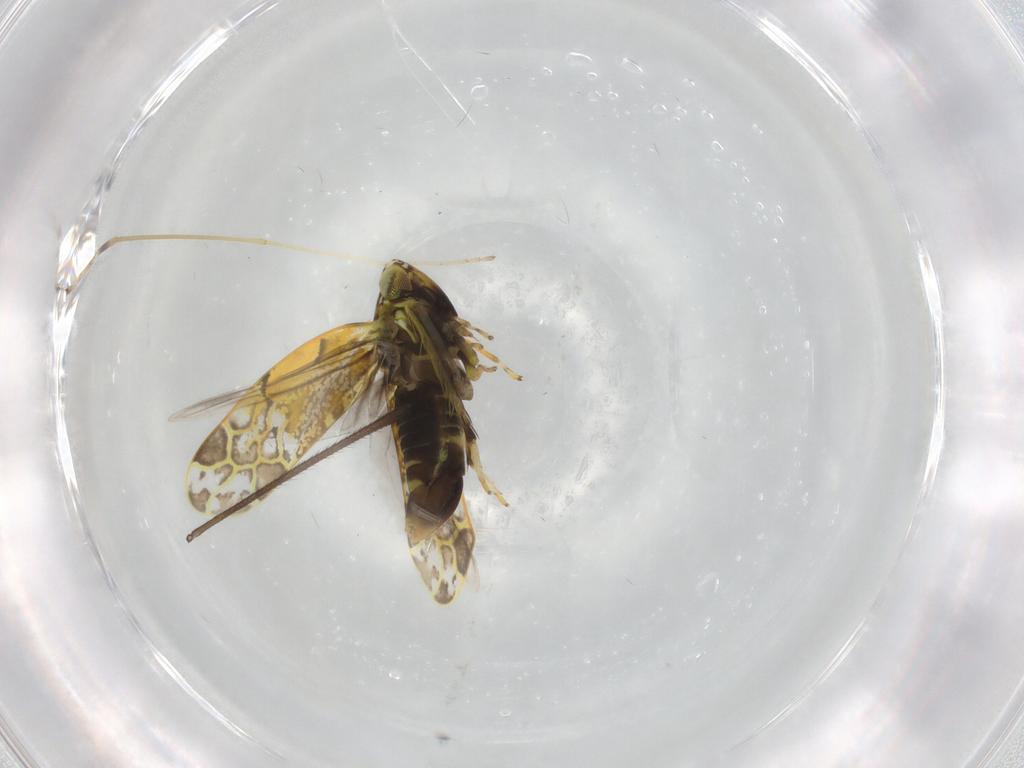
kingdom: Animalia
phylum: Arthropoda
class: Insecta
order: Hemiptera
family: Cicadellidae
